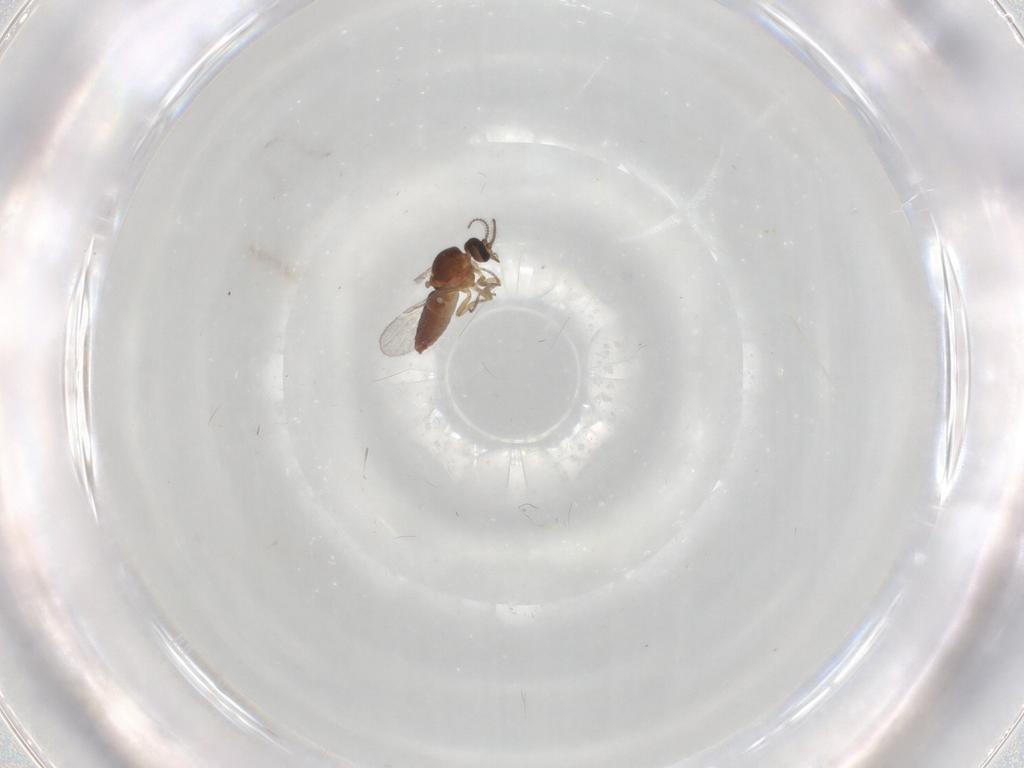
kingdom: Animalia
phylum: Arthropoda
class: Insecta
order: Diptera
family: Ceratopogonidae
